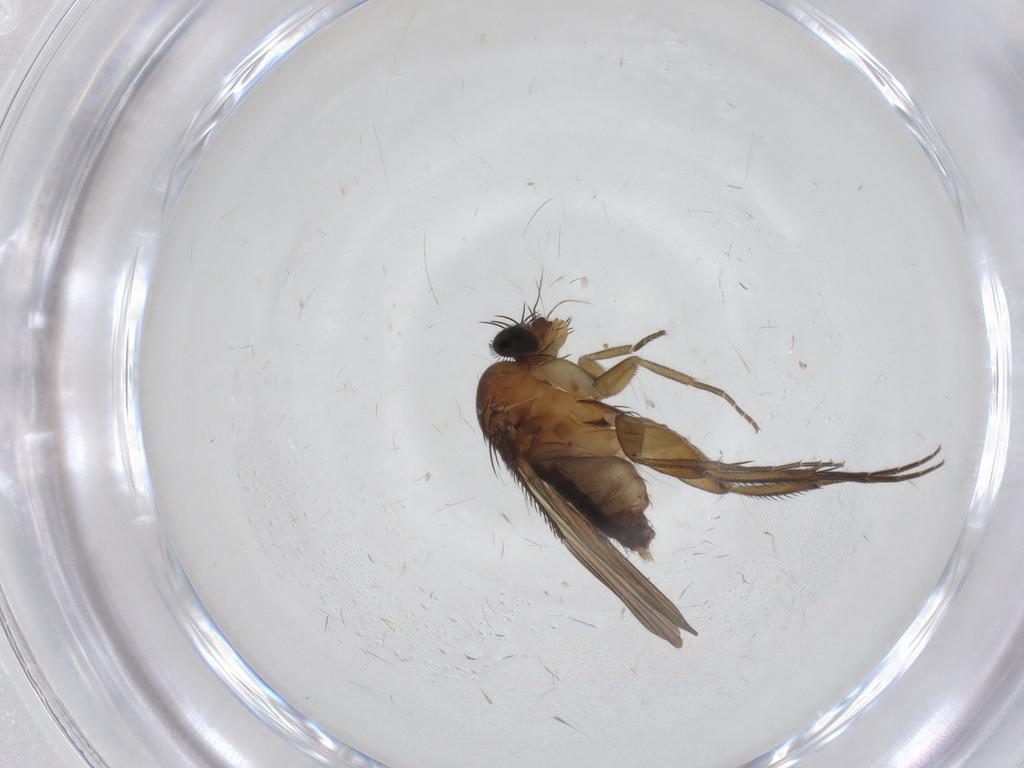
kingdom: Animalia
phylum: Arthropoda
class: Insecta
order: Diptera
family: Phoridae
